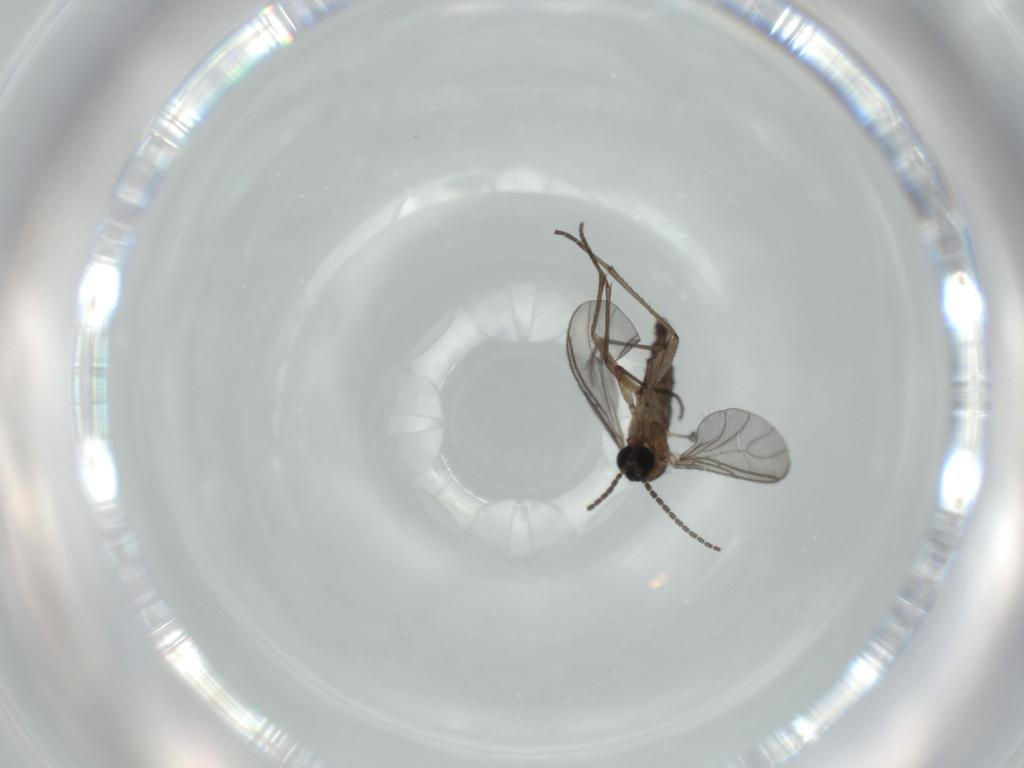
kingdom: Animalia
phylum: Arthropoda
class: Insecta
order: Diptera
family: Sciaridae
